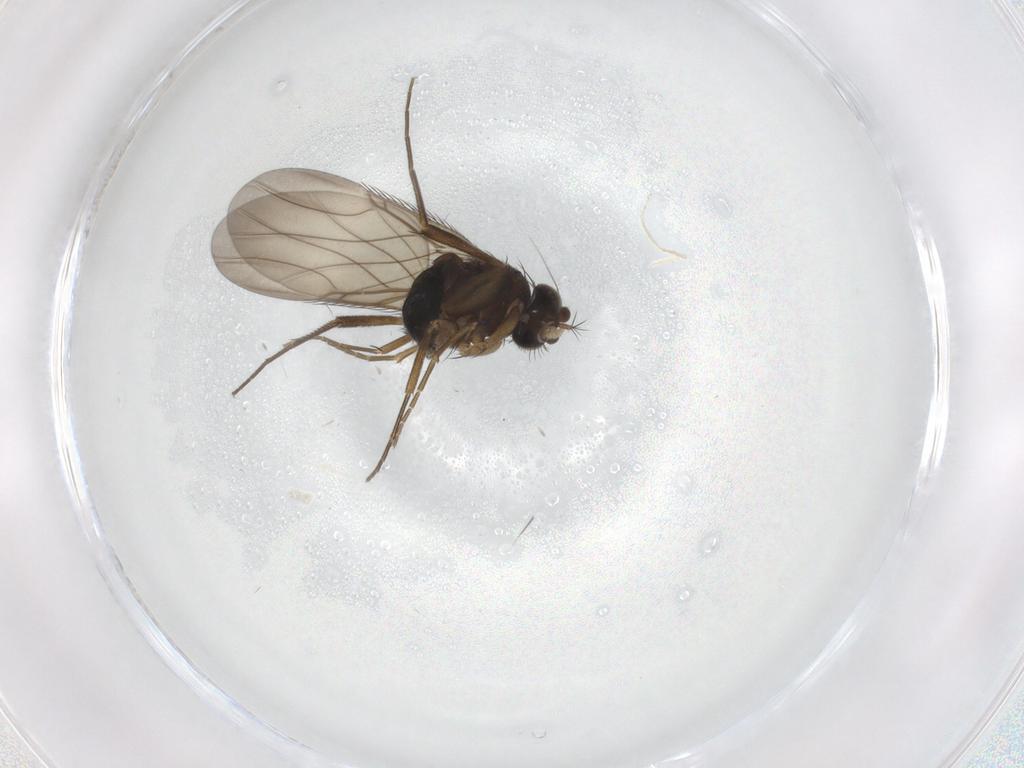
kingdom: Animalia
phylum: Arthropoda
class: Insecta
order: Diptera
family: Phoridae
